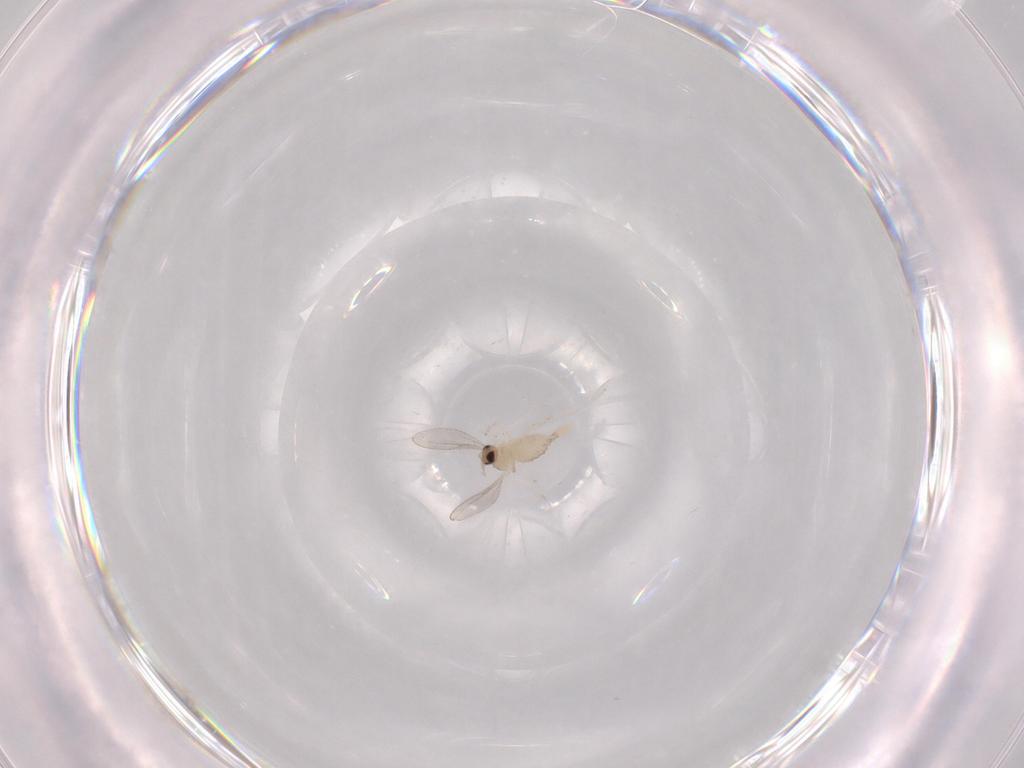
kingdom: Animalia
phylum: Arthropoda
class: Insecta
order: Diptera
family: Cecidomyiidae
